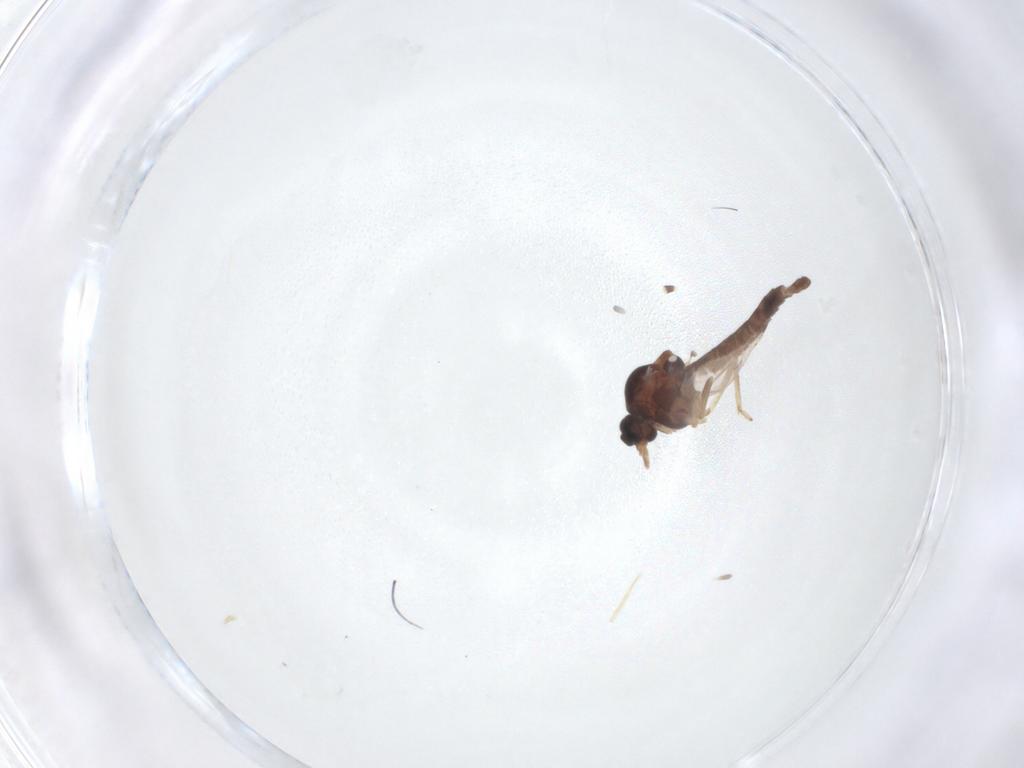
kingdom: Animalia
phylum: Arthropoda
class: Insecta
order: Diptera
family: Ceratopogonidae
